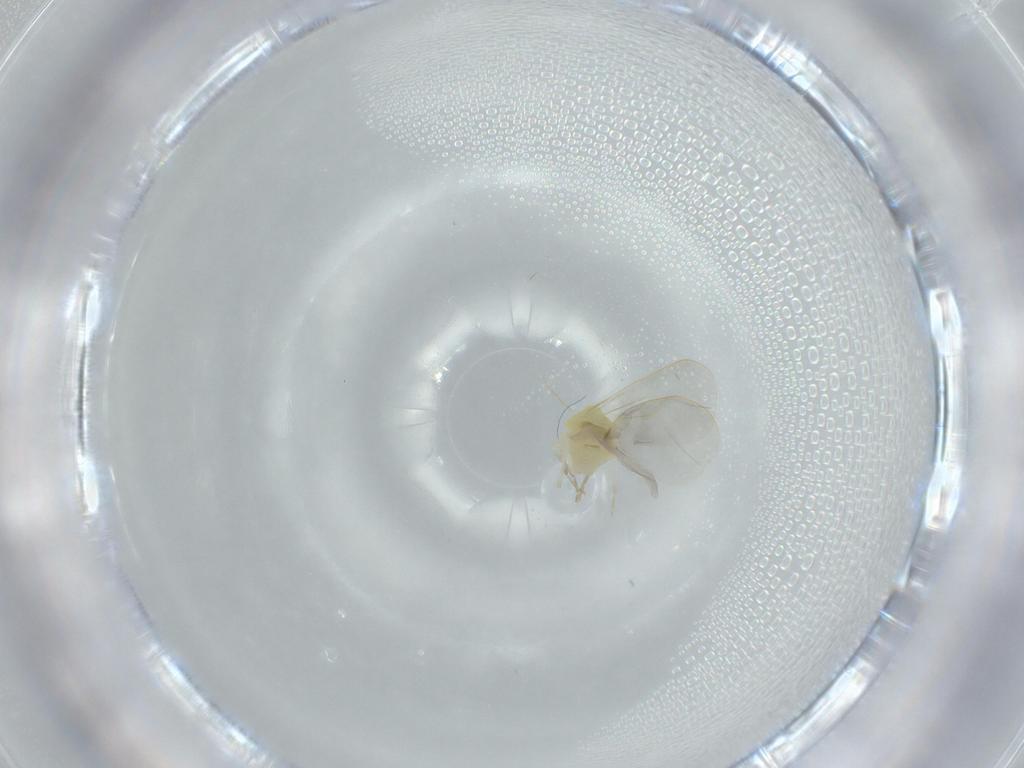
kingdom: Animalia
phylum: Arthropoda
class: Insecta
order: Hemiptera
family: Aleyrodidae
